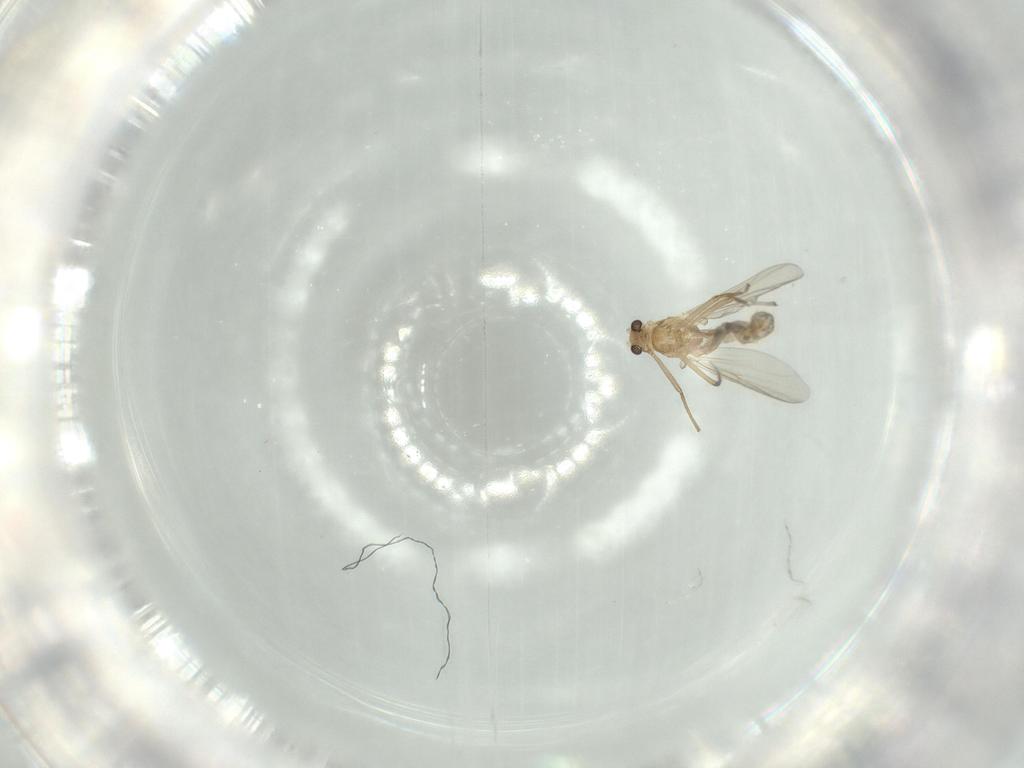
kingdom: Animalia
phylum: Arthropoda
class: Insecta
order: Diptera
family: Chironomidae
